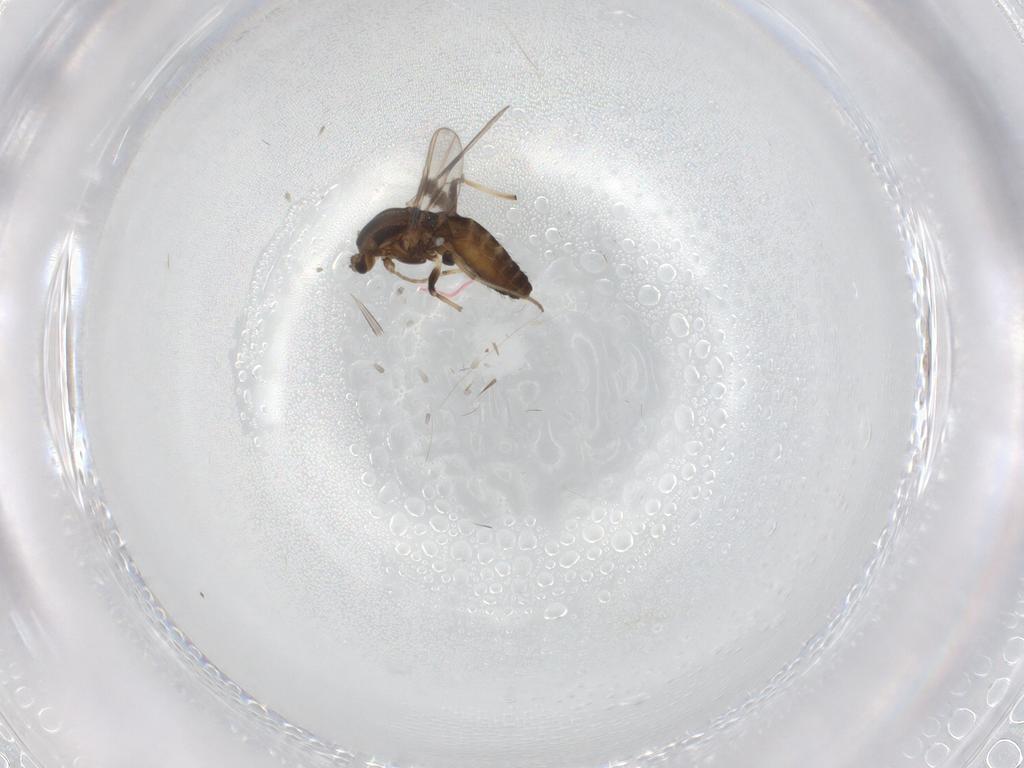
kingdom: Animalia
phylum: Arthropoda
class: Insecta
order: Diptera
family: Chironomidae
